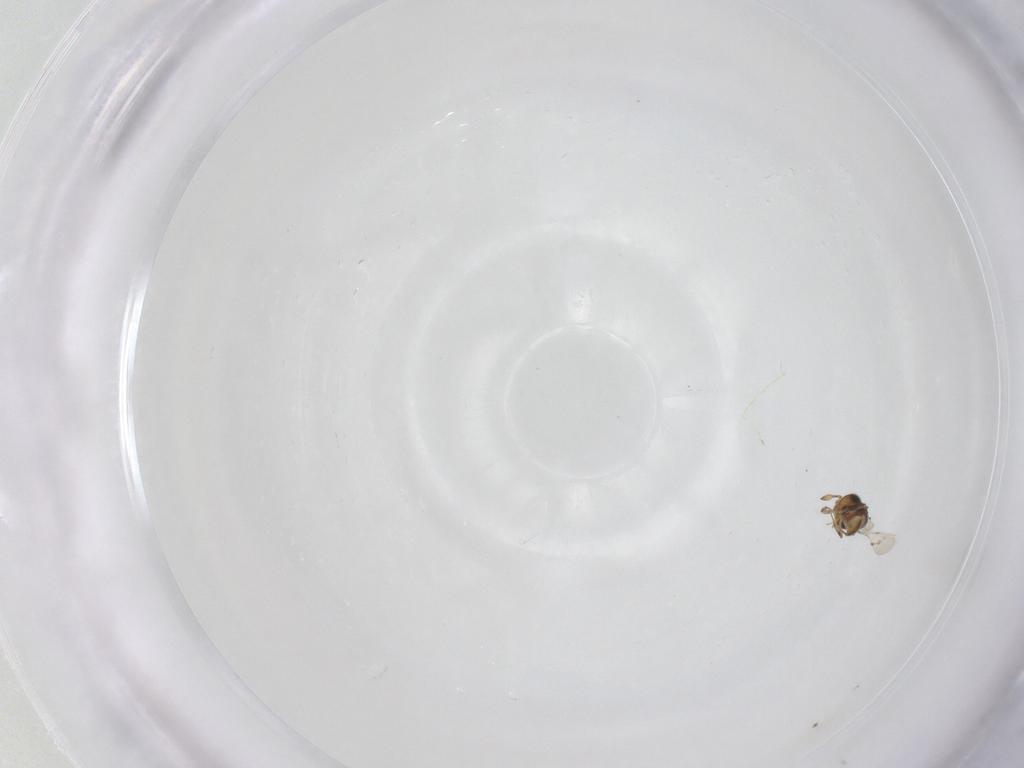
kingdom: Animalia
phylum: Arthropoda
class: Insecta
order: Hymenoptera
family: Scelionidae
